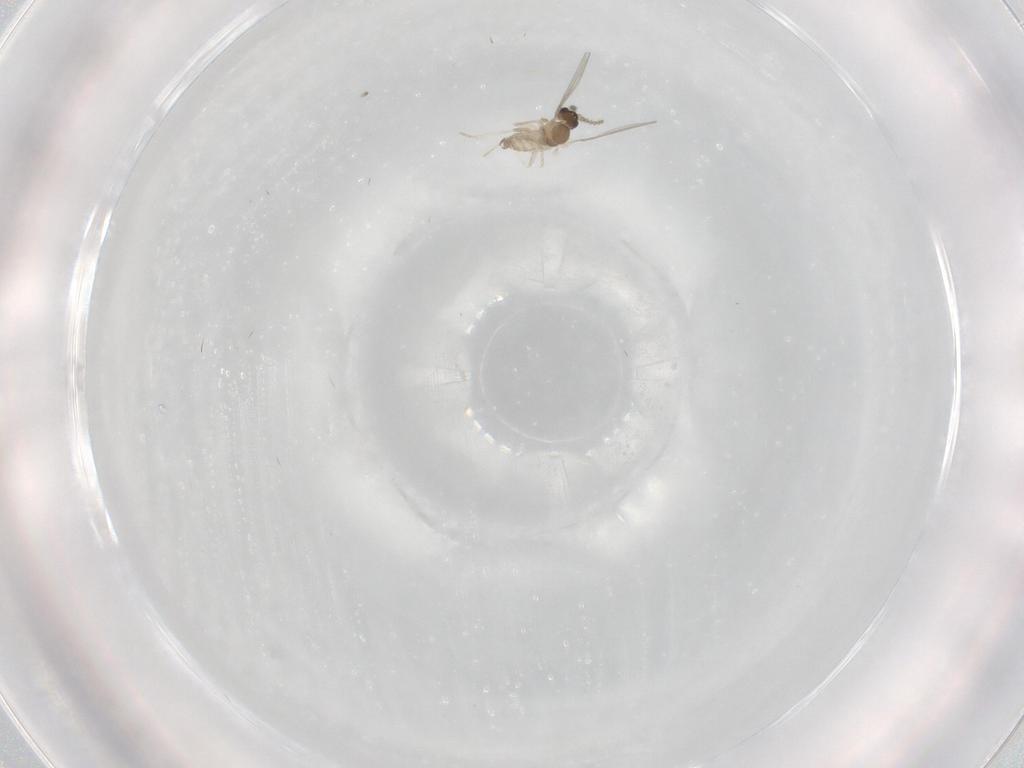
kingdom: Animalia
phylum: Arthropoda
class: Insecta
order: Diptera
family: Cecidomyiidae
